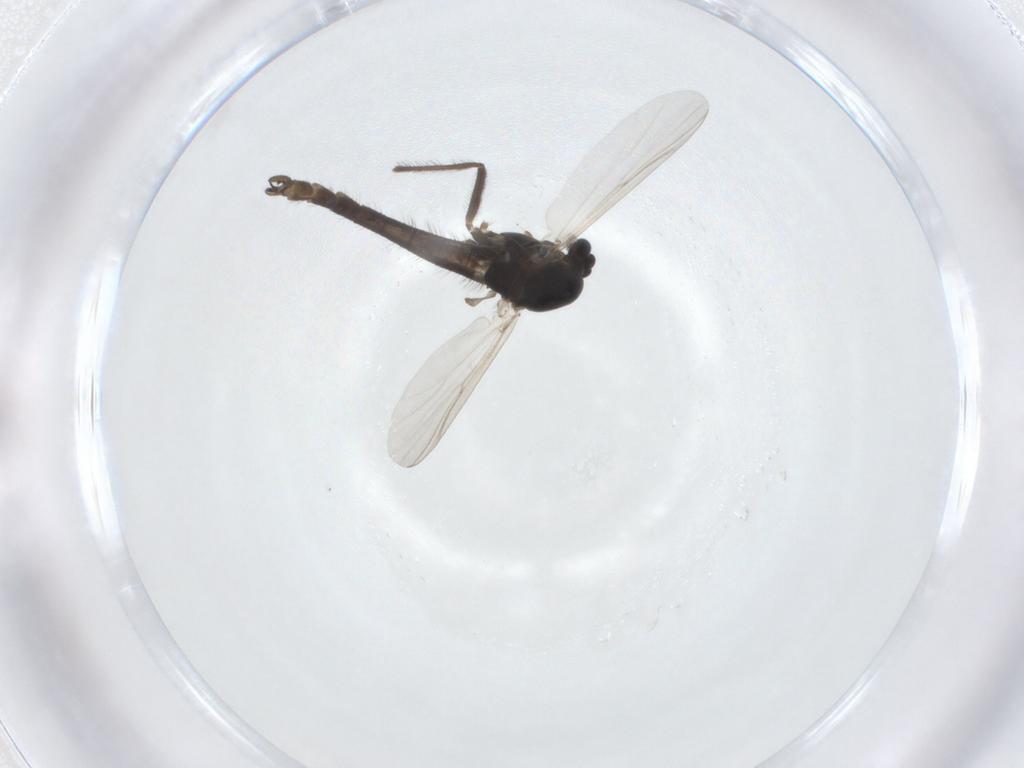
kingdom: Animalia
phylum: Arthropoda
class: Insecta
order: Diptera
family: Chironomidae
